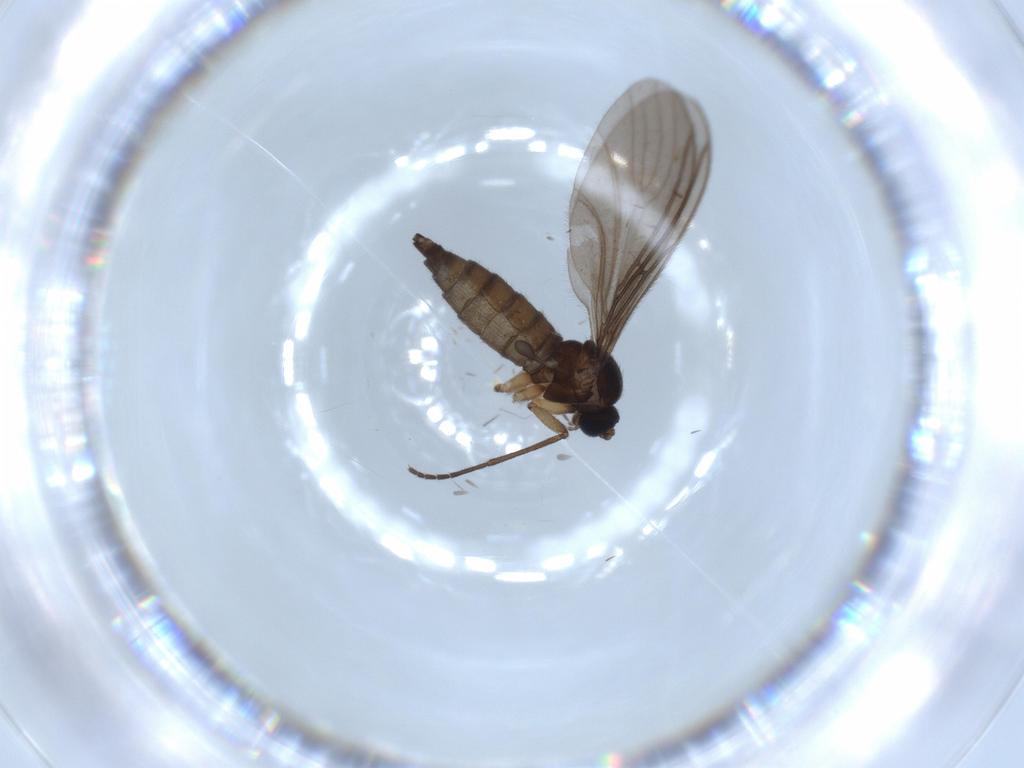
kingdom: Animalia
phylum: Arthropoda
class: Insecta
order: Diptera
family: Sciaridae
